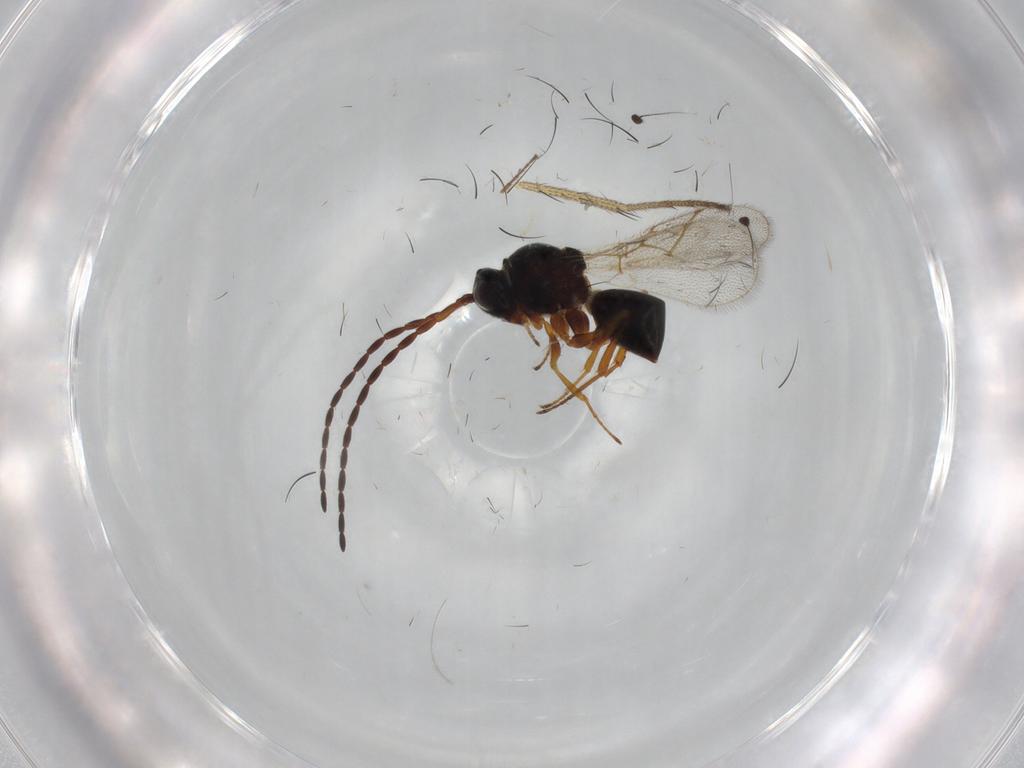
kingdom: Animalia
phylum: Arthropoda
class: Insecta
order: Hymenoptera
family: Figitidae
